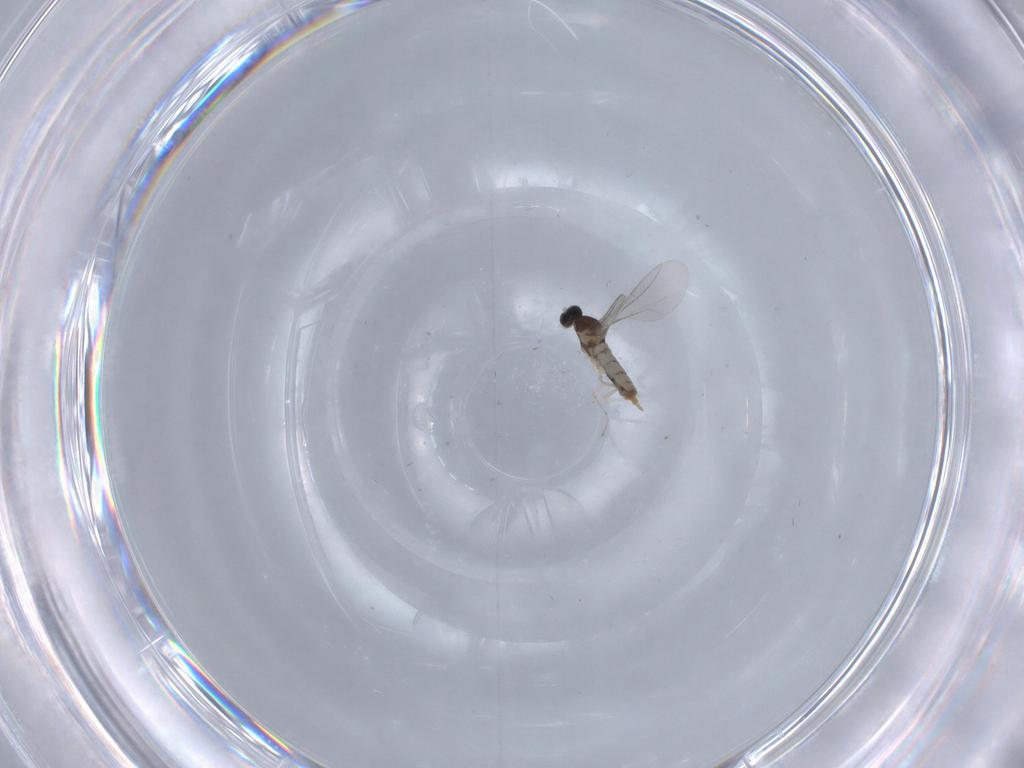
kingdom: Animalia
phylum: Arthropoda
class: Insecta
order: Diptera
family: Cecidomyiidae
